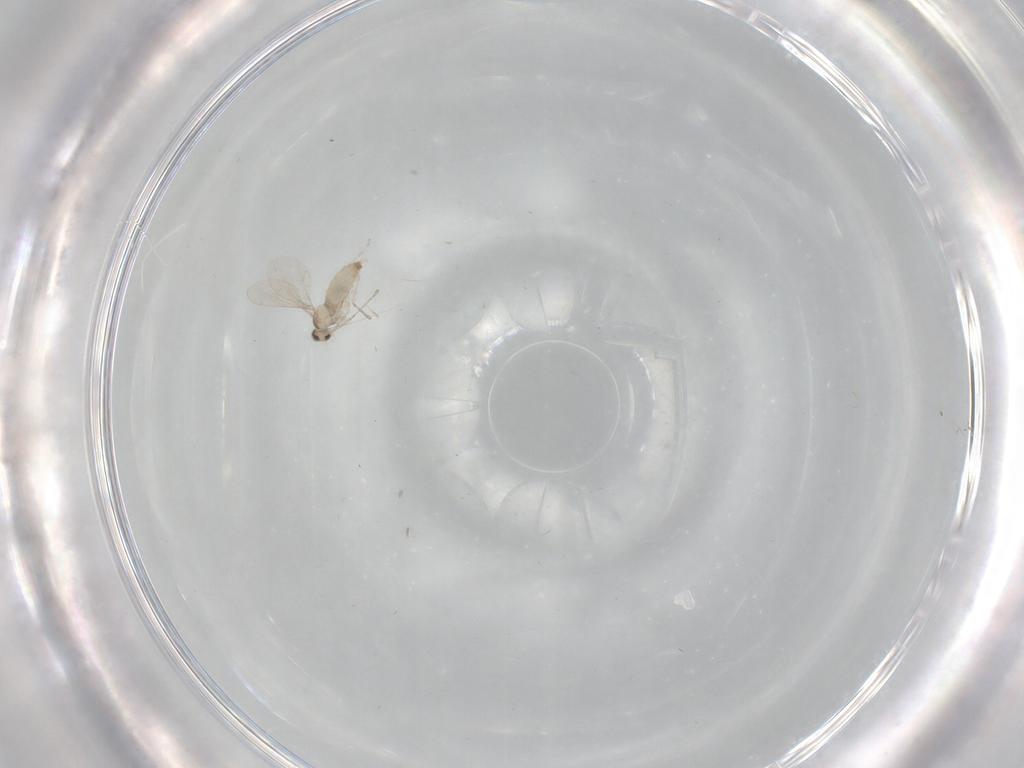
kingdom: Animalia
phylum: Arthropoda
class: Insecta
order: Diptera
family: Cecidomyiidae
